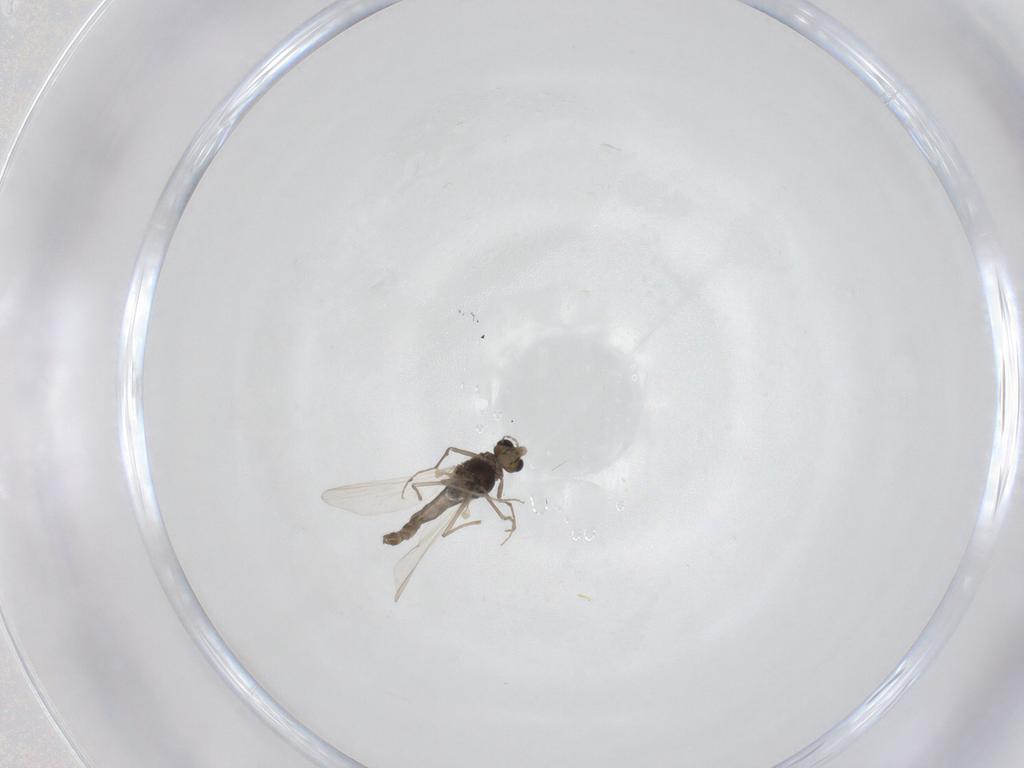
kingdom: Animalia
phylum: Arthropoda
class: Insecta
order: Diptera
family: Chironomidae
